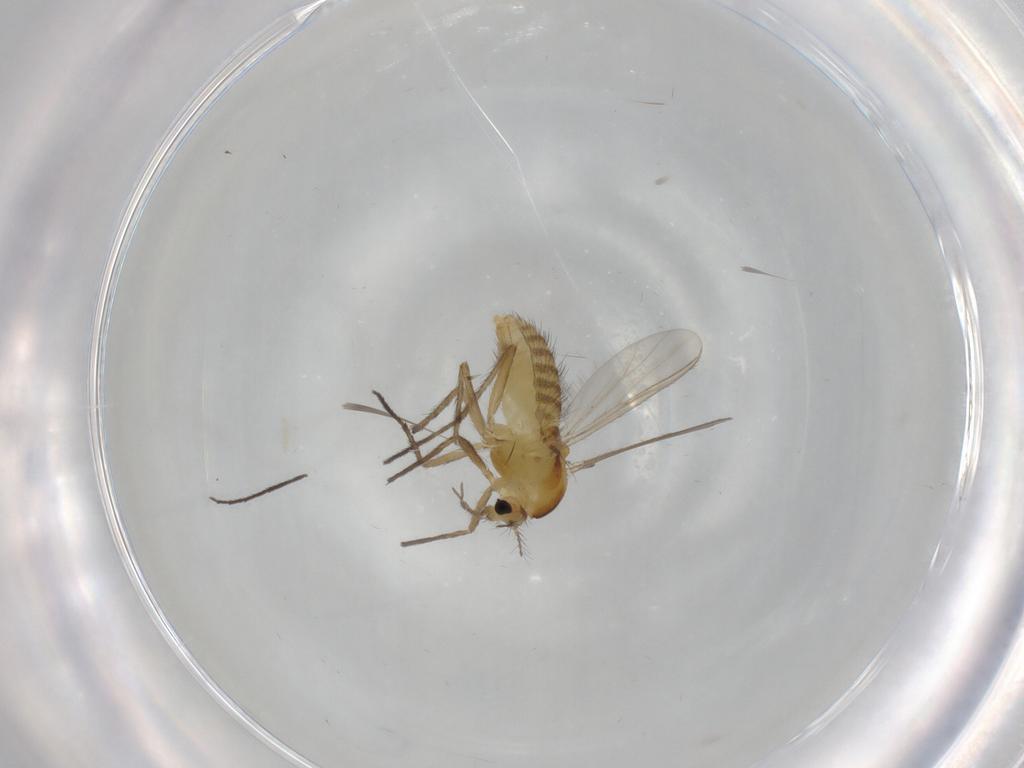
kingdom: Animalia
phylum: Arthropoda
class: Insecta
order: Diptera
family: Chironomidae
